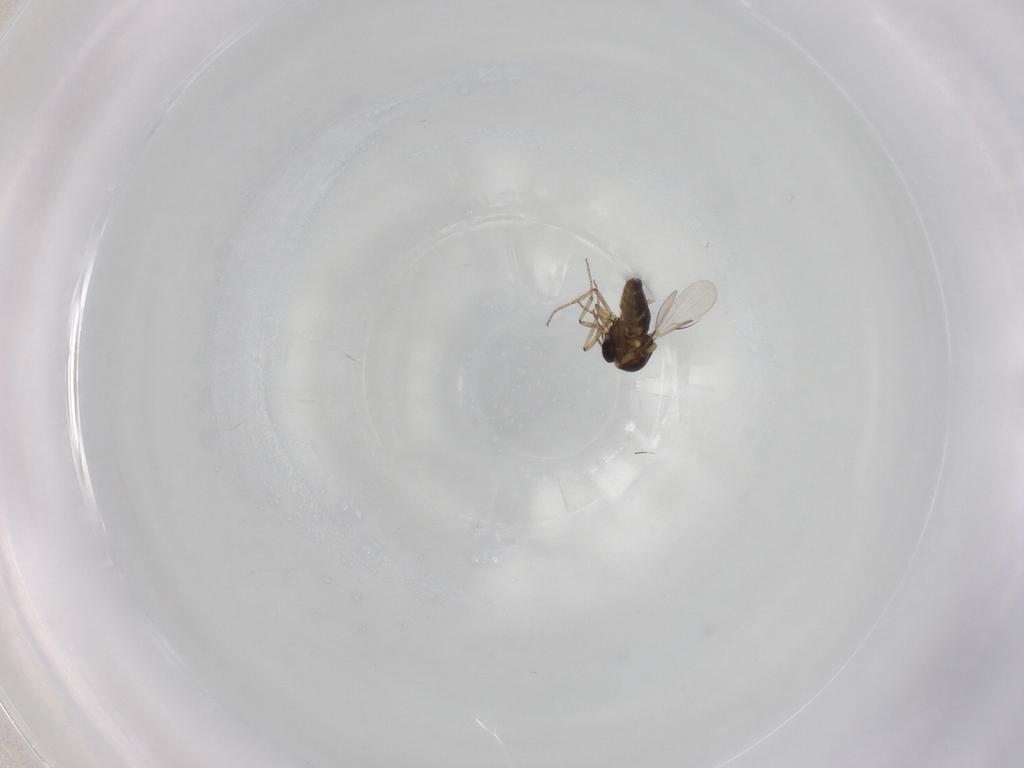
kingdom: Animalia
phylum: Arthropoda
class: Insecta
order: Diptera
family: Ceratopogonidae
